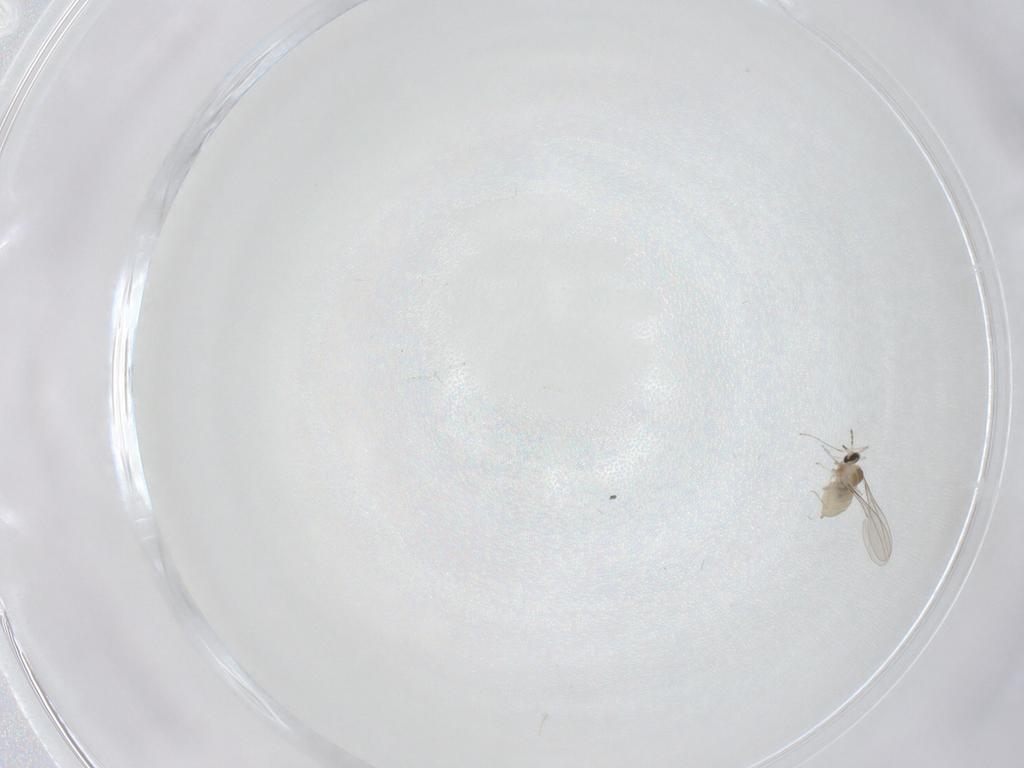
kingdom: Animalia
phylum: Arthropoda
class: Insecta
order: Diptera
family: Cecidomyiidae
